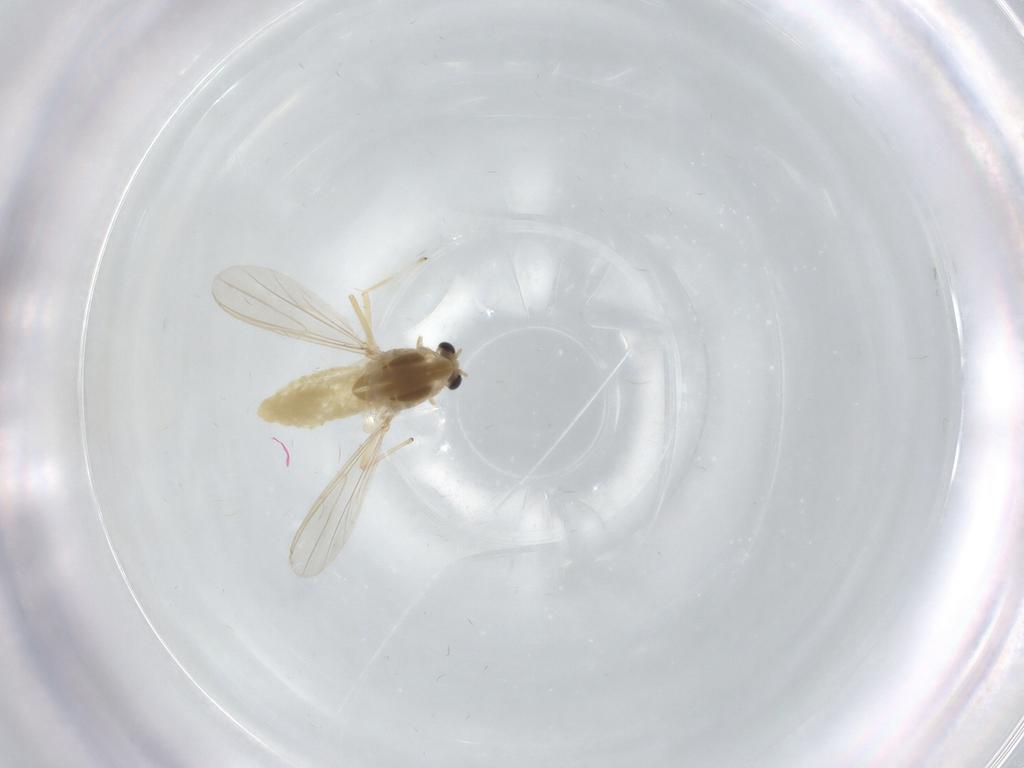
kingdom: Animalia
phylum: Arthropoda
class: Insecta
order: Diptera
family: Chironomidae
